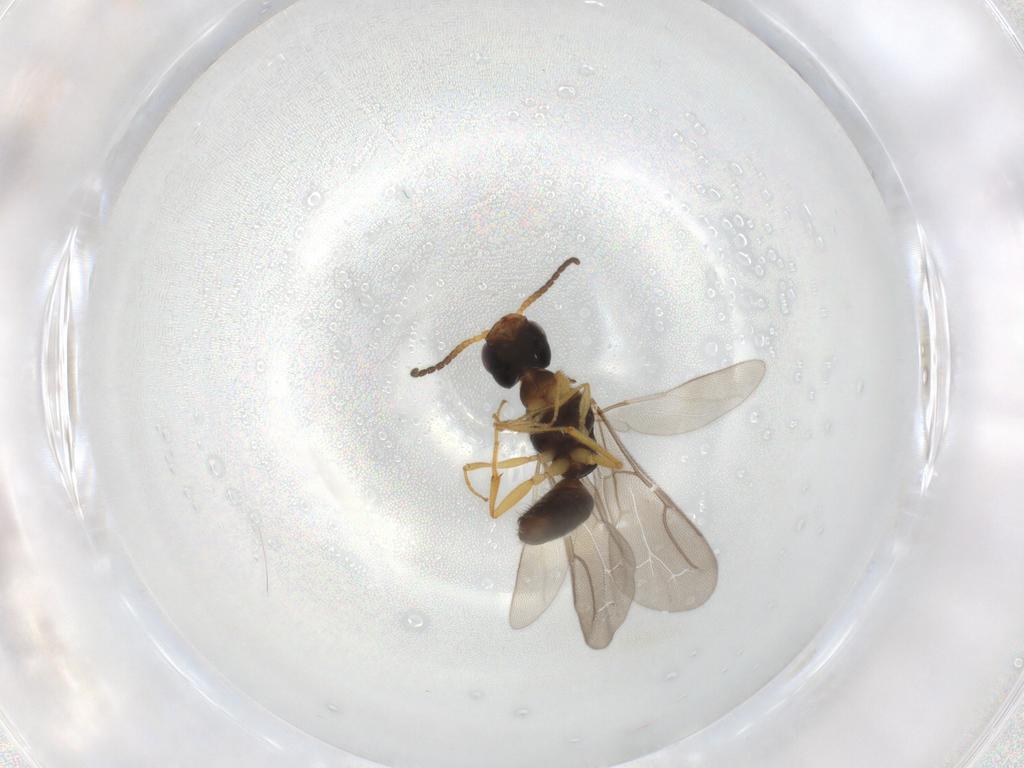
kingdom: Animalia
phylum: Arthropoda
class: Insecta
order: Hymenoptera
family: Bethylidae
